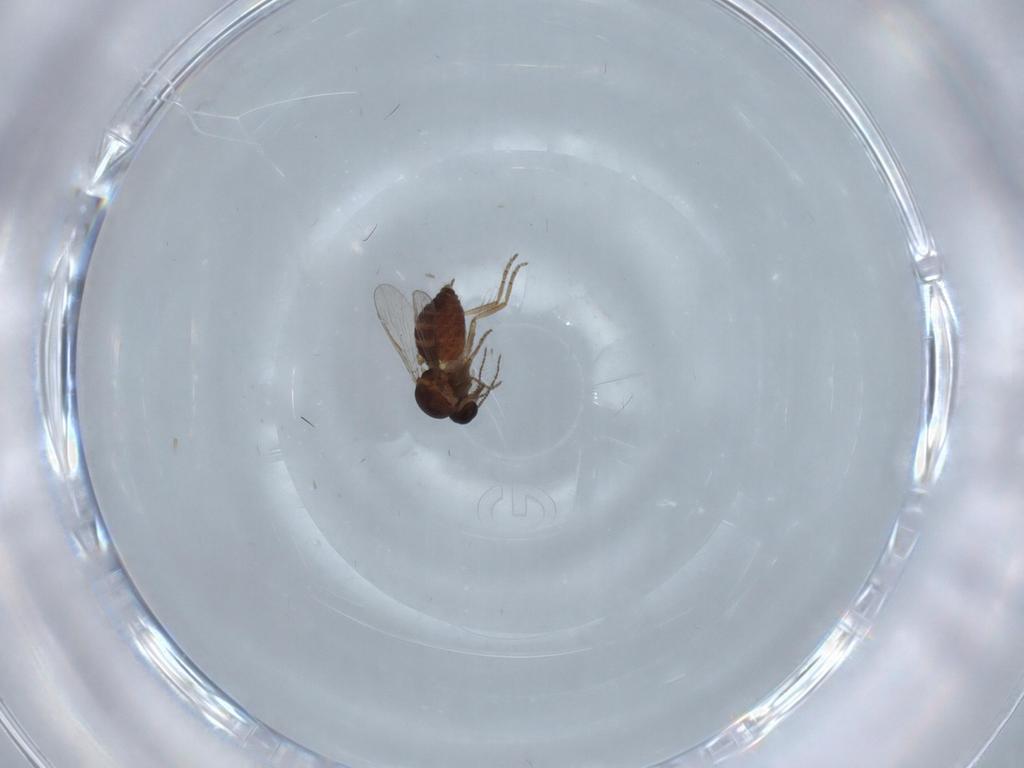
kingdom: Animalia
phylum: Arthropoda
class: Insecta
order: Diptera
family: Chironomidae
